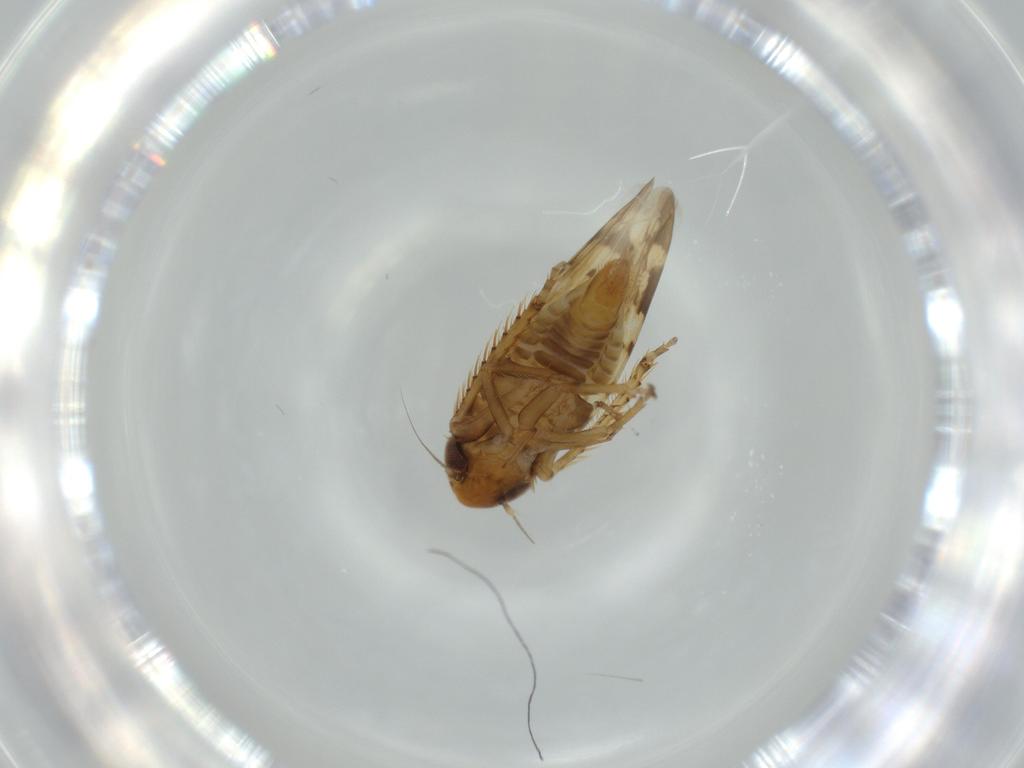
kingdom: Animalia
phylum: Arthropoda
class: Insecta
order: Hemiptera
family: Cicadellidae
